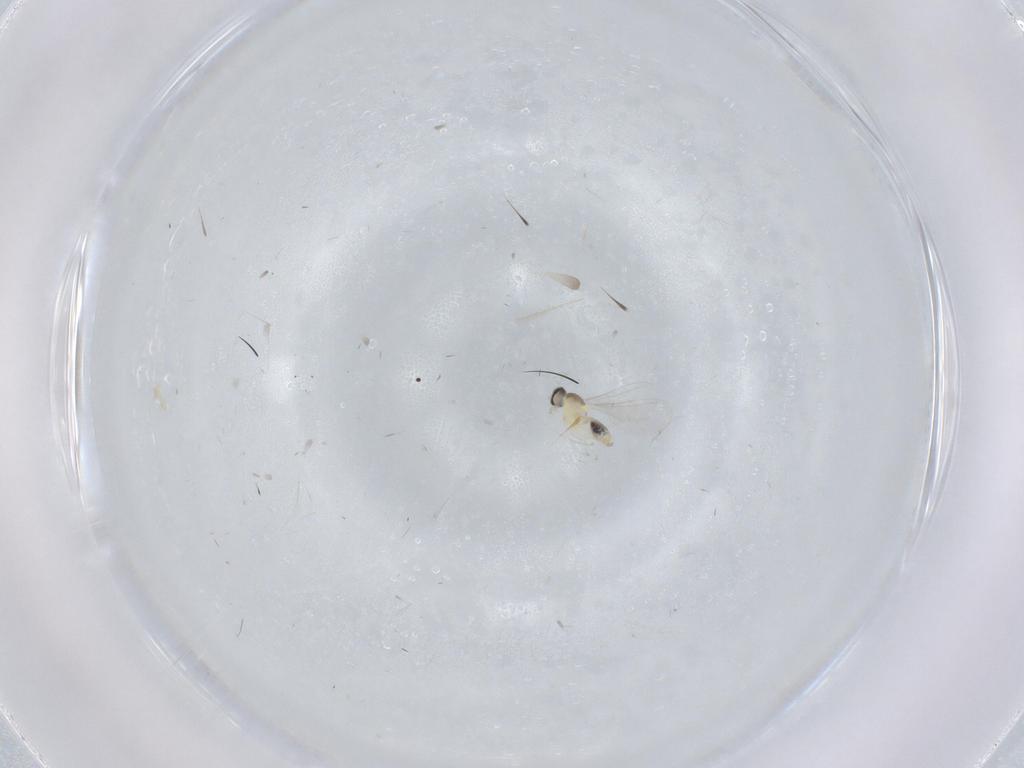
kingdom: Animalia
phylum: Arthropoda
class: Insecta
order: Diptera
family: Cecidomyiidae
